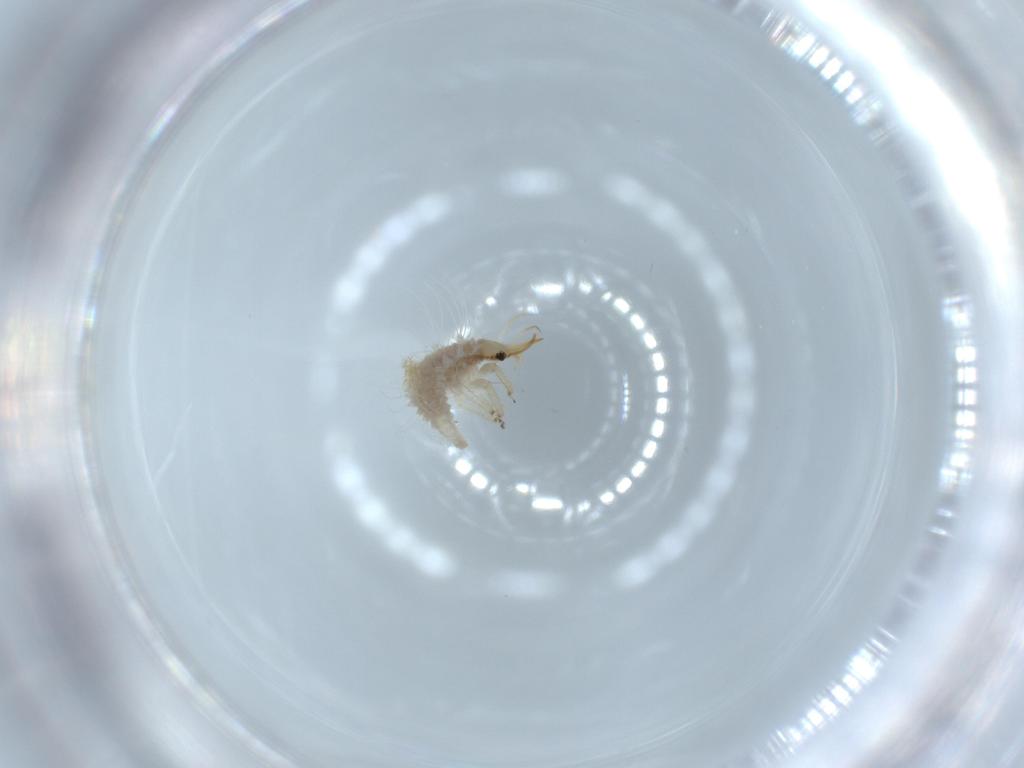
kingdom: Animalia
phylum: Arthropoda
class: Insecta
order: Neuroptera
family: Chrysopidae
